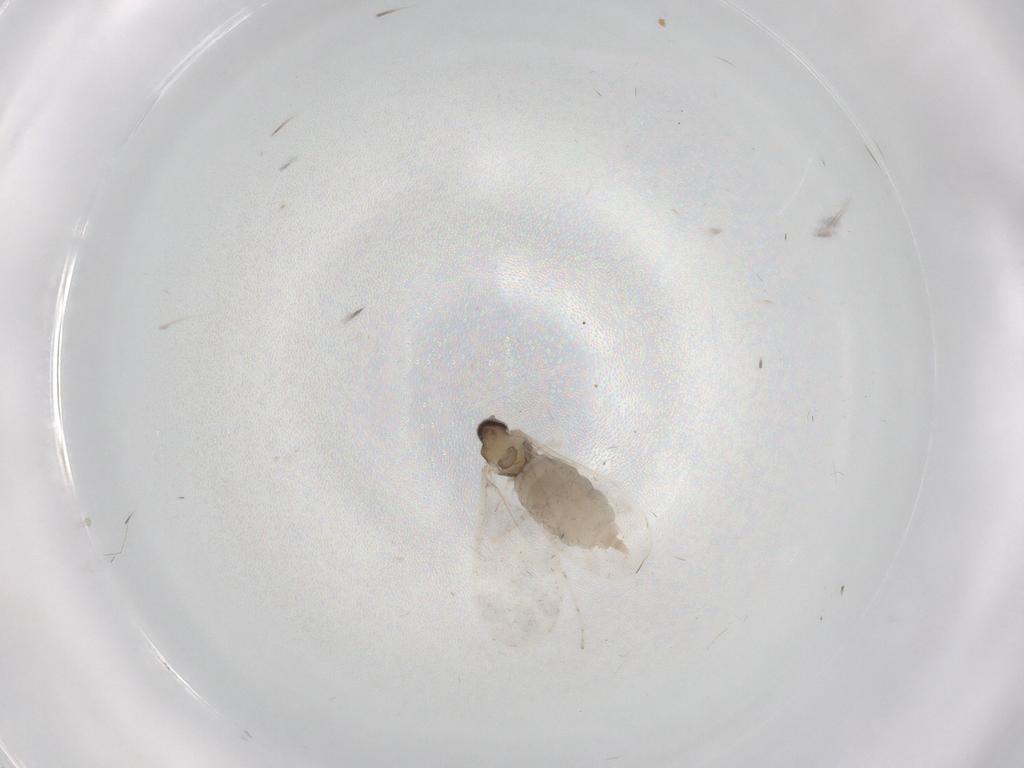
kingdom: Animalia
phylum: Arthropoda
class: Insecta
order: Diptera
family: Cecidomyiidae
